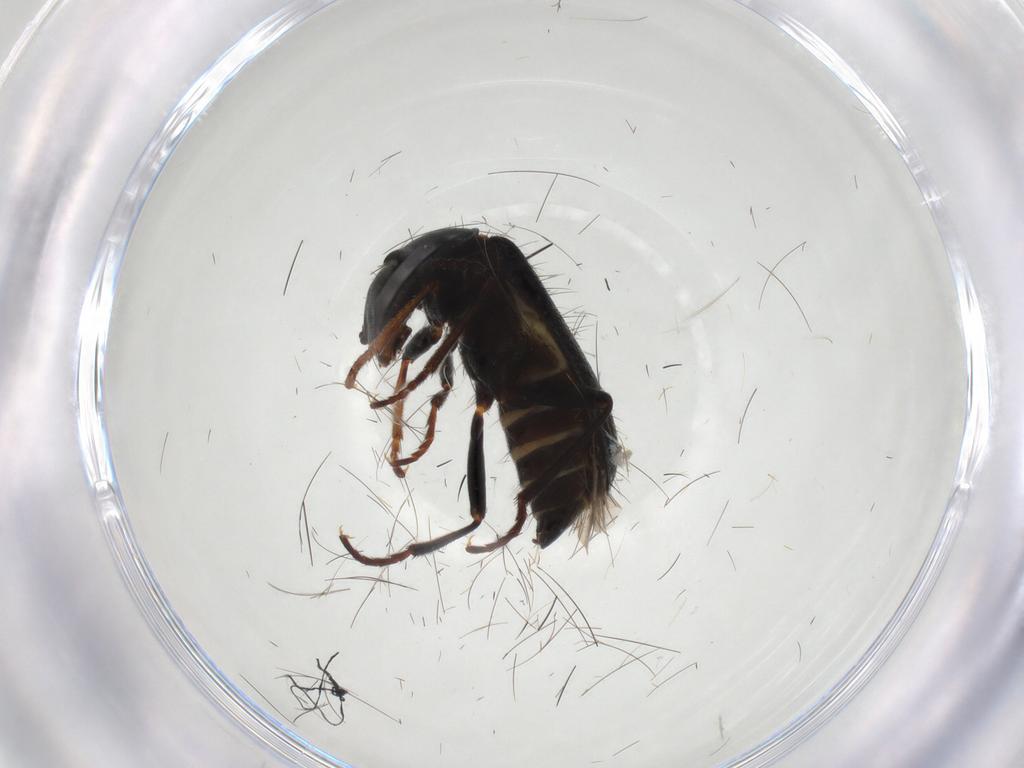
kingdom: Animalia
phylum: Arthropoda
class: Insecta
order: Coleoptera
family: Melyridae
